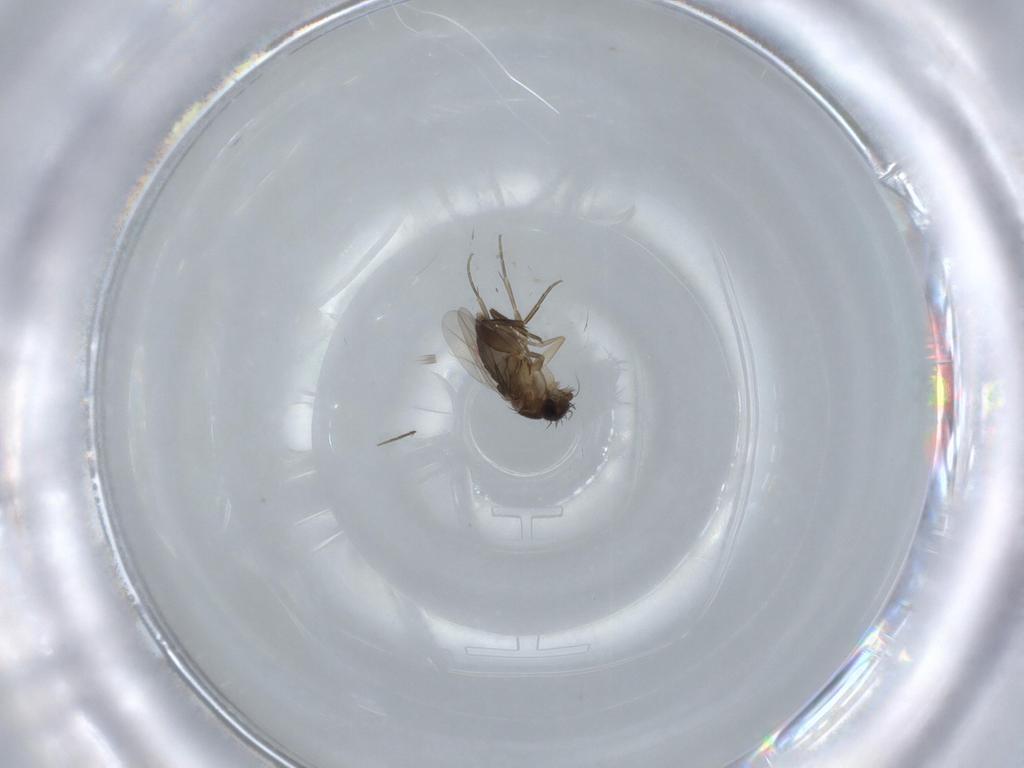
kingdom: Animalia
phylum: Arthropoda
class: Insecta
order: Diptera
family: Phoridae
